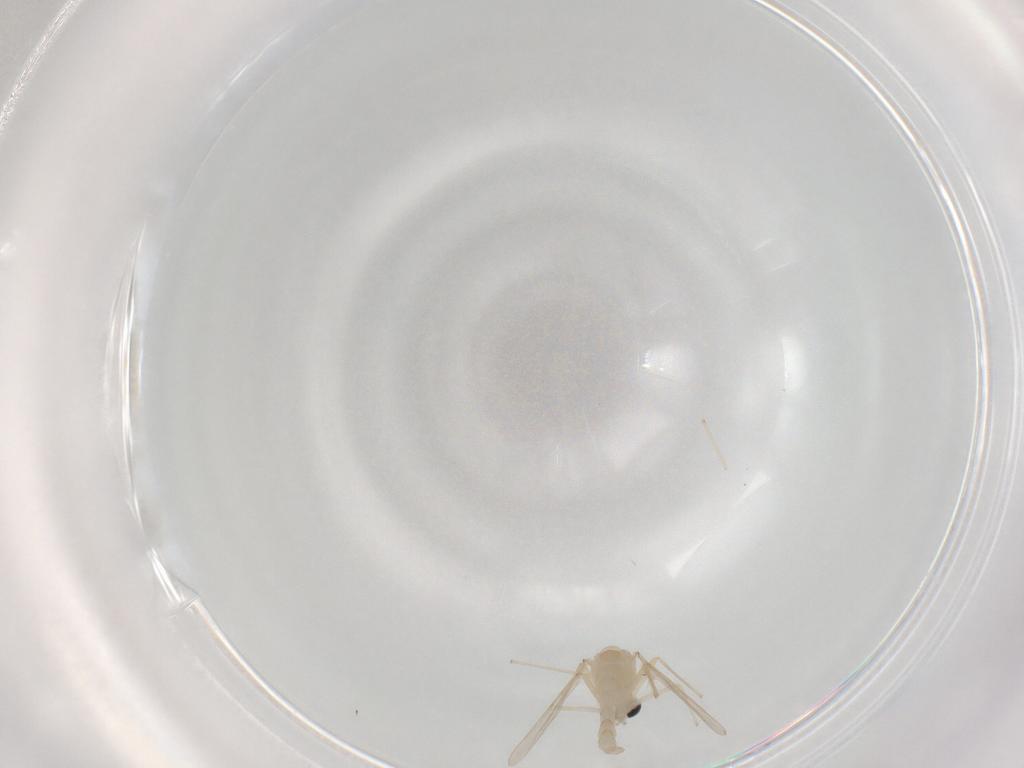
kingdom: Animalia
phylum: Arthropoda
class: Insecta
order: Diptera
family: Chironomidae
